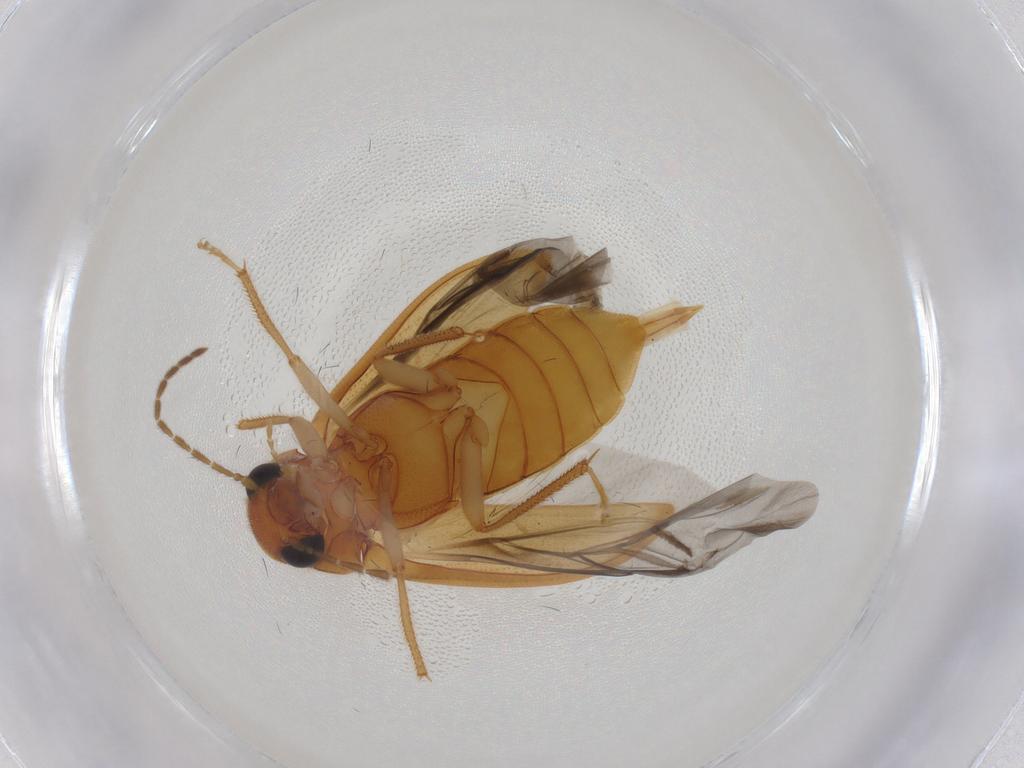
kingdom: Animalia
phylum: Arthropoda
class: Insecta
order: Coleoptera
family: Ptilodactylidae
